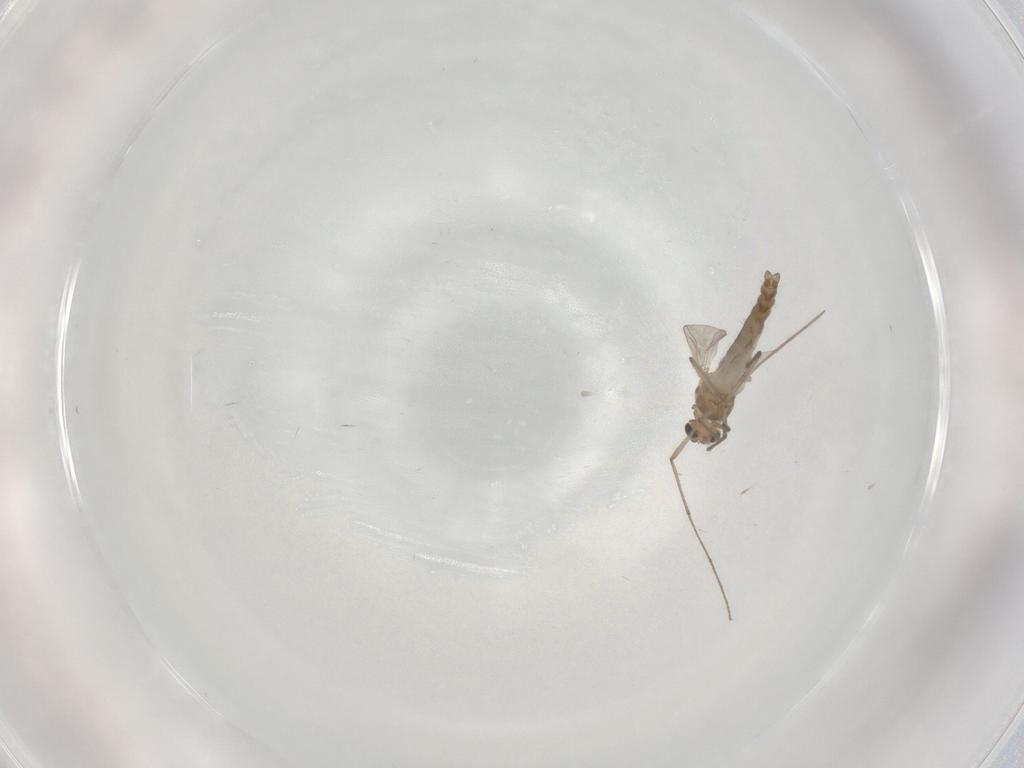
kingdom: Animalia
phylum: Arthropoda
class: Insecta
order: Diptera
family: Chironomidae
